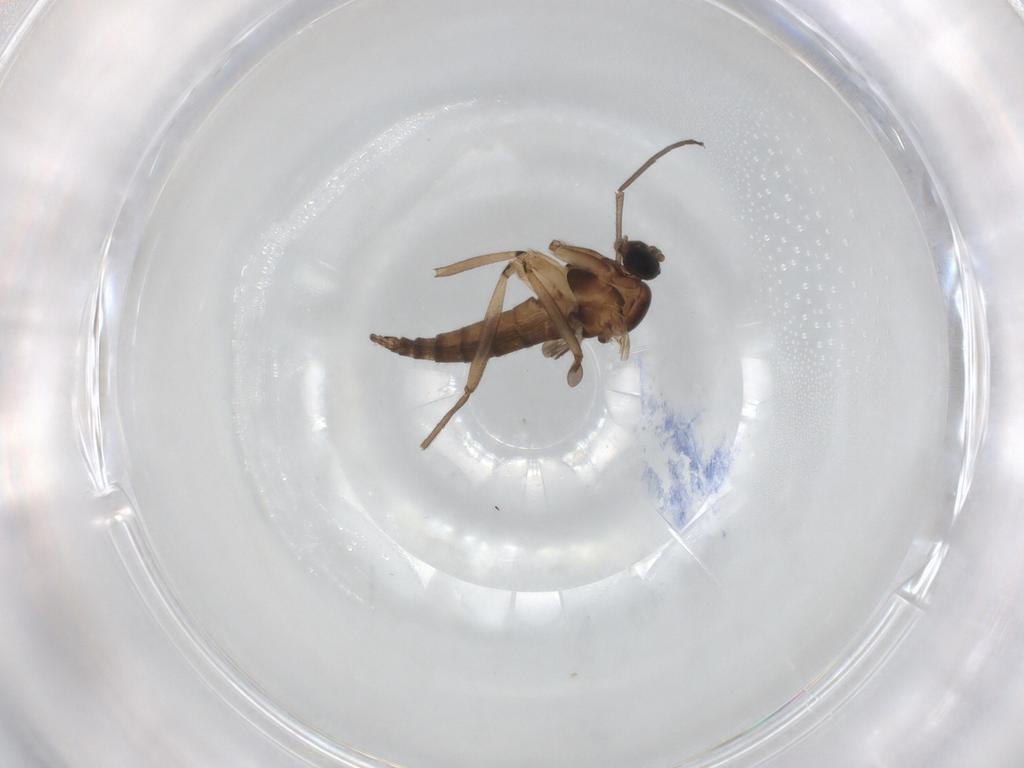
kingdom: Animalia
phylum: Arthropoda
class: Insecta
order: Diptera
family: Sciaridae
